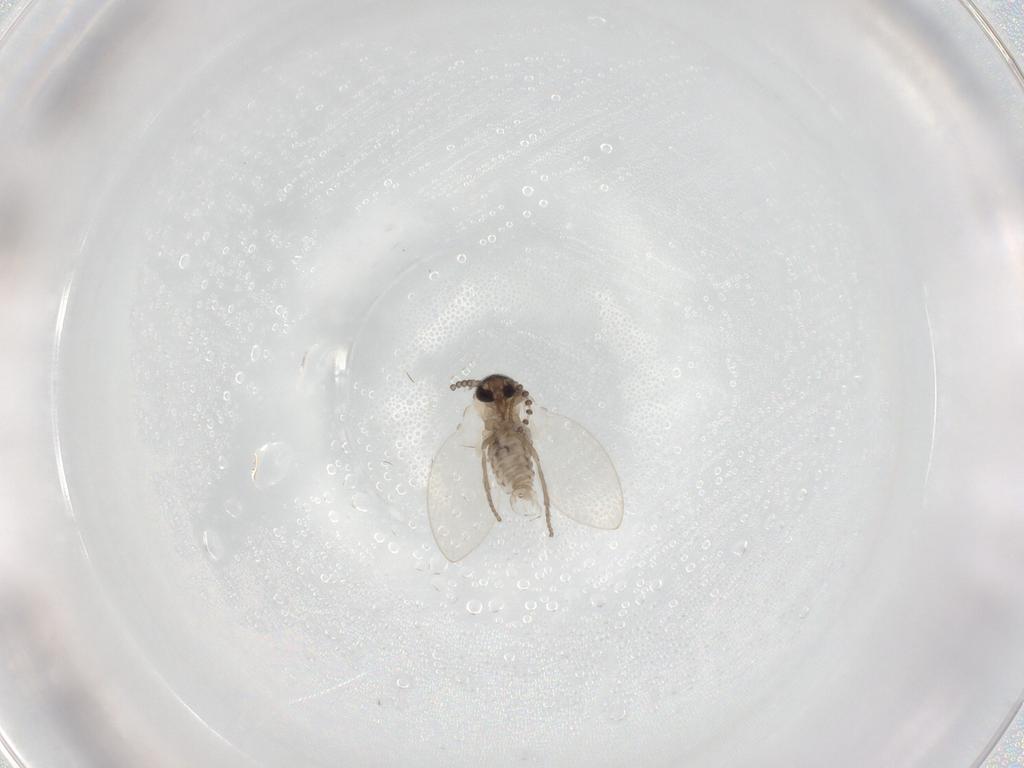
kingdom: Animalia
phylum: Arthropoda
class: Insecta
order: Diptera
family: Psychodidae
